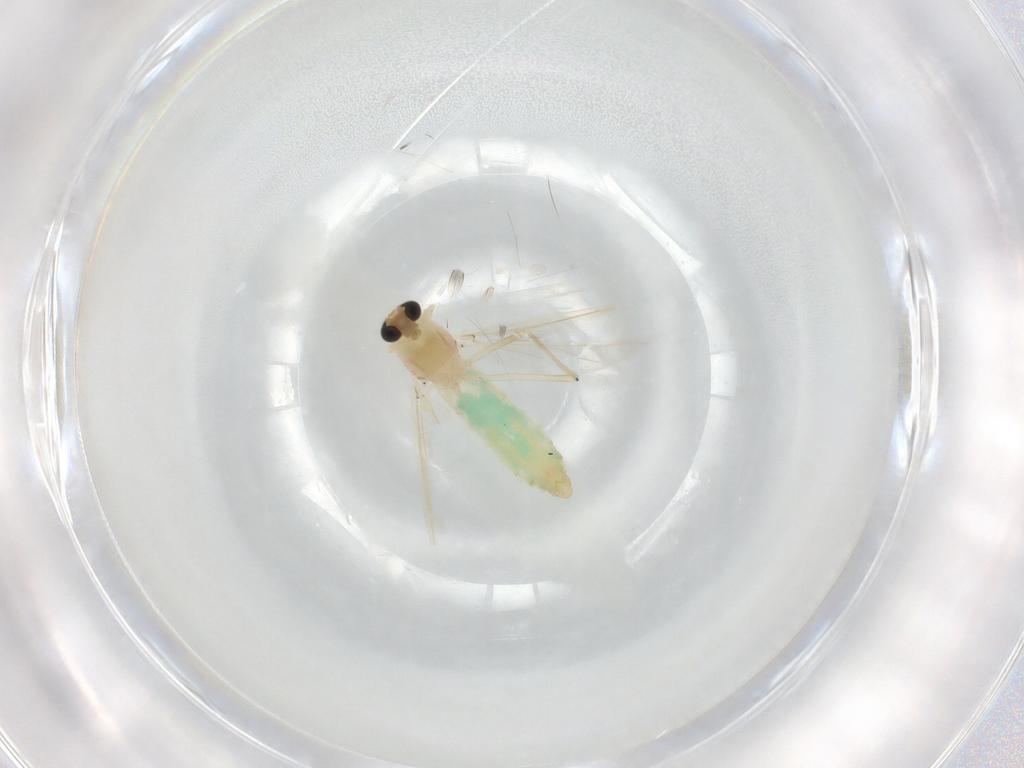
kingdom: Animalia
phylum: Arthropoda
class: Insecta
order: Diptera
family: Chironomidae
